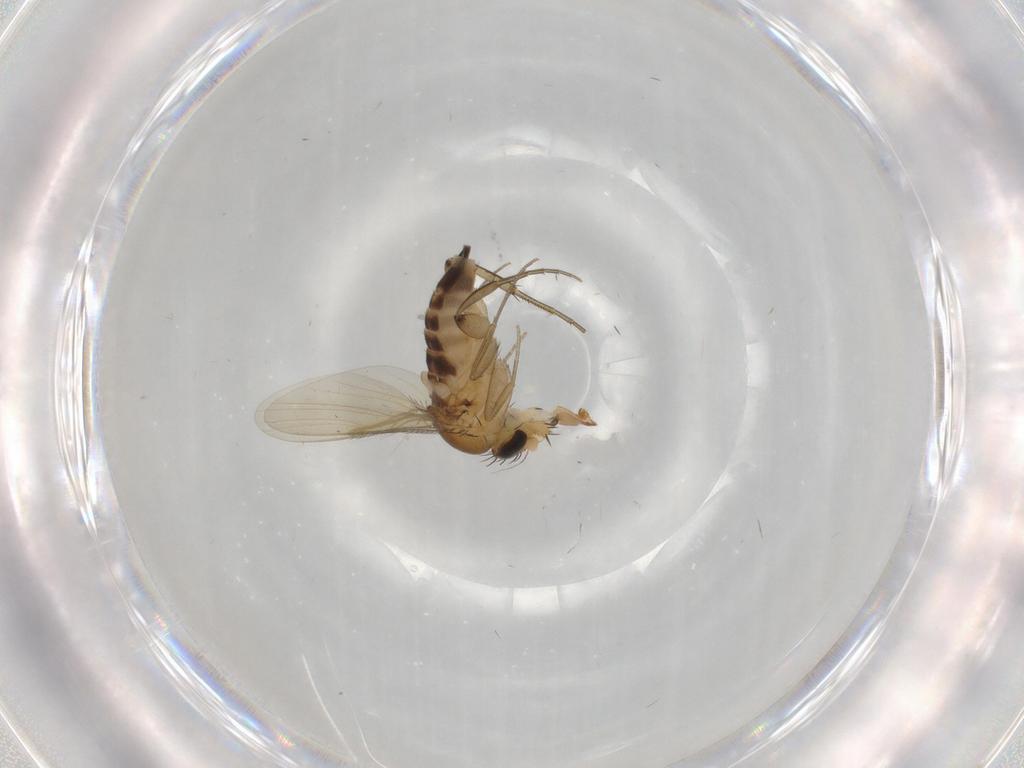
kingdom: Animalia
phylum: Arthropoda
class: Insecta
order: Diptera
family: Phoridae
